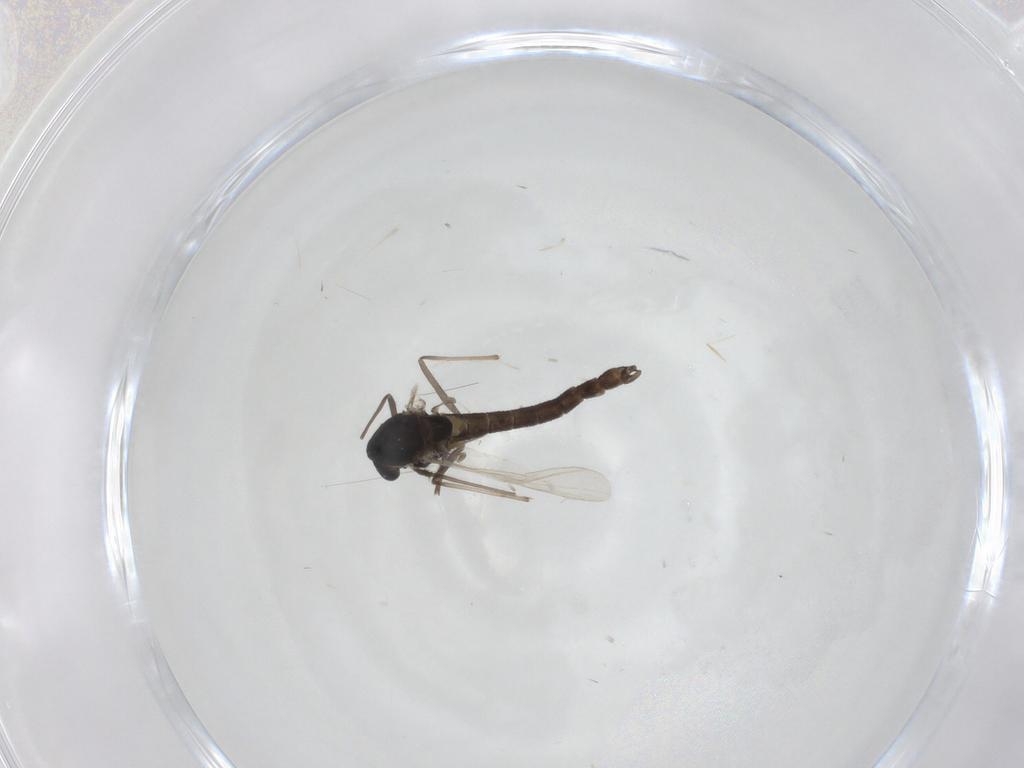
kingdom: Animalia
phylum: Arthropoda
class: Insecta
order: Diptera
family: Chironomidae
